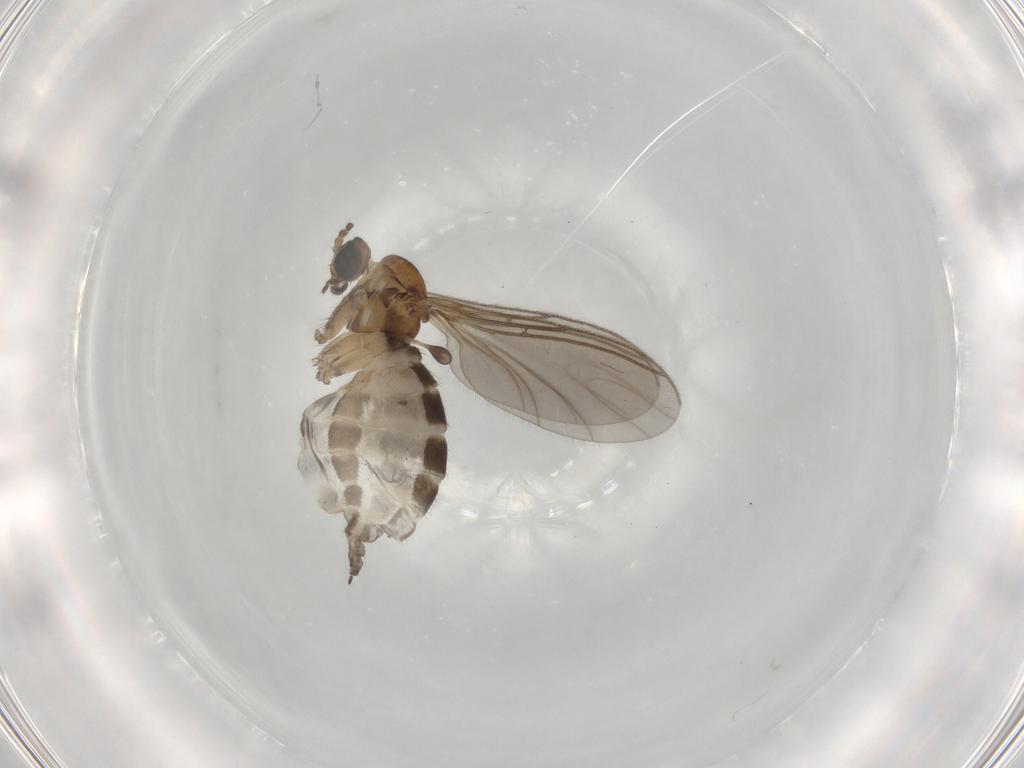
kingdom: Animalia
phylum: Arthropoda
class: Insecta
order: Diptera
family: Sciaridae
